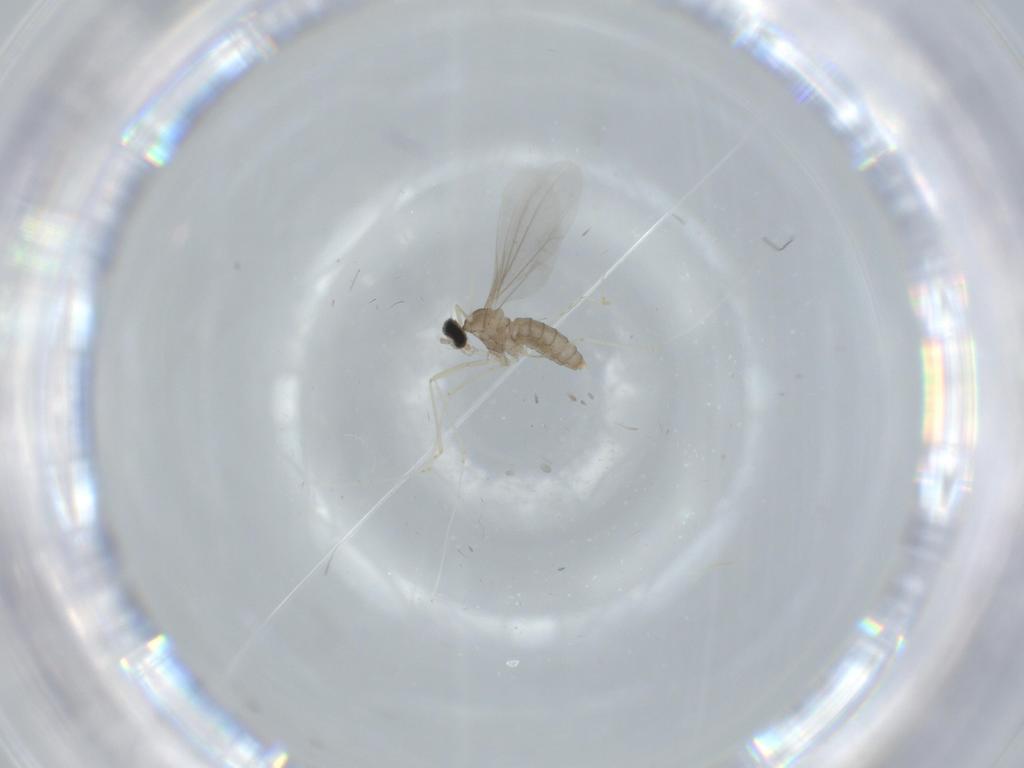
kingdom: Animalia
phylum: Arthropoda
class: Insecta
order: Diptera
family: Cecidomyiidae
